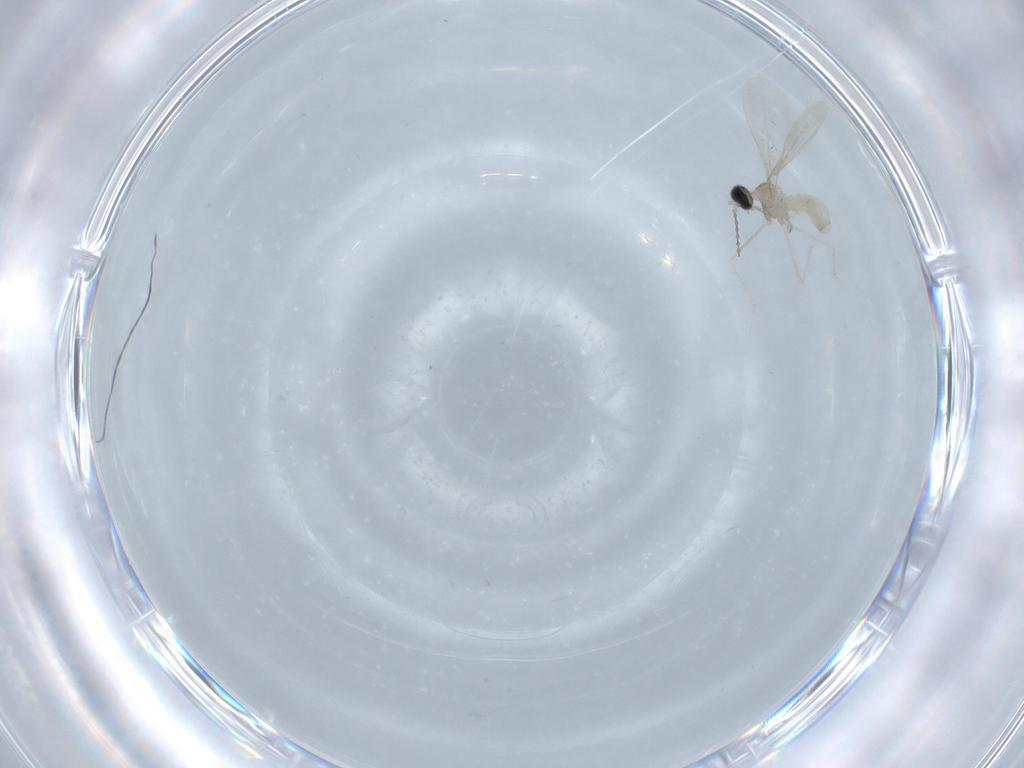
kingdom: Animalia
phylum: Arthropoda
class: Insecta
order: Diptera
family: Cecidomyiidae
